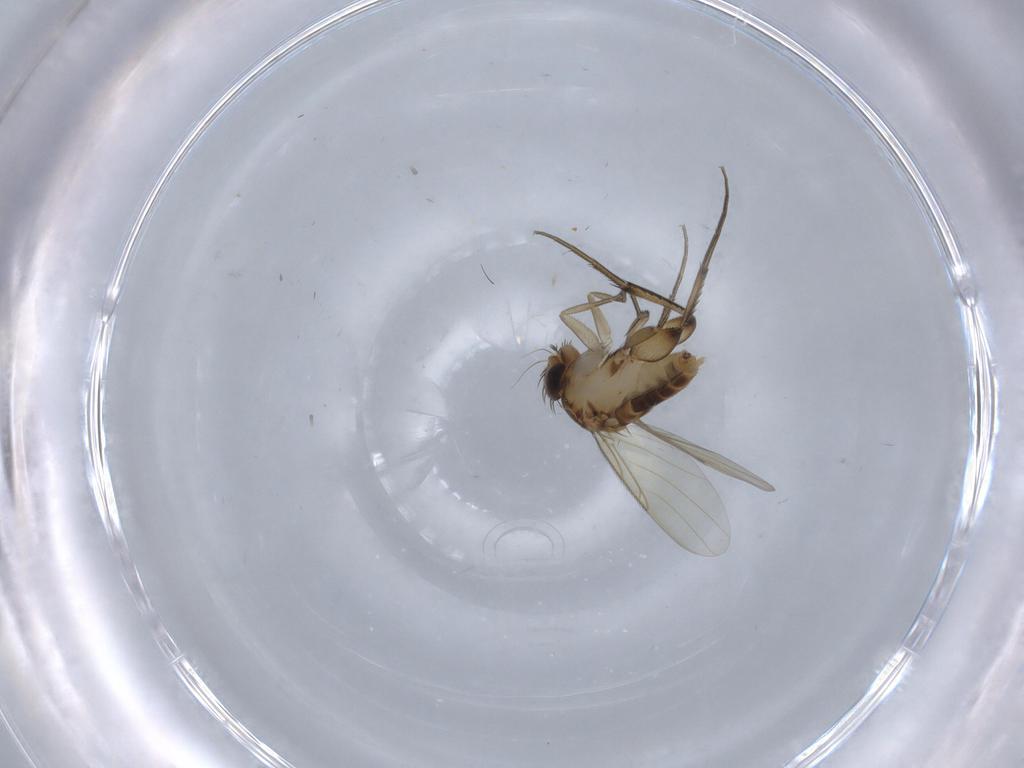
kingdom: Animalia
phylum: Arthropoda
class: Insecta
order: Diptera
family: Phoridae
